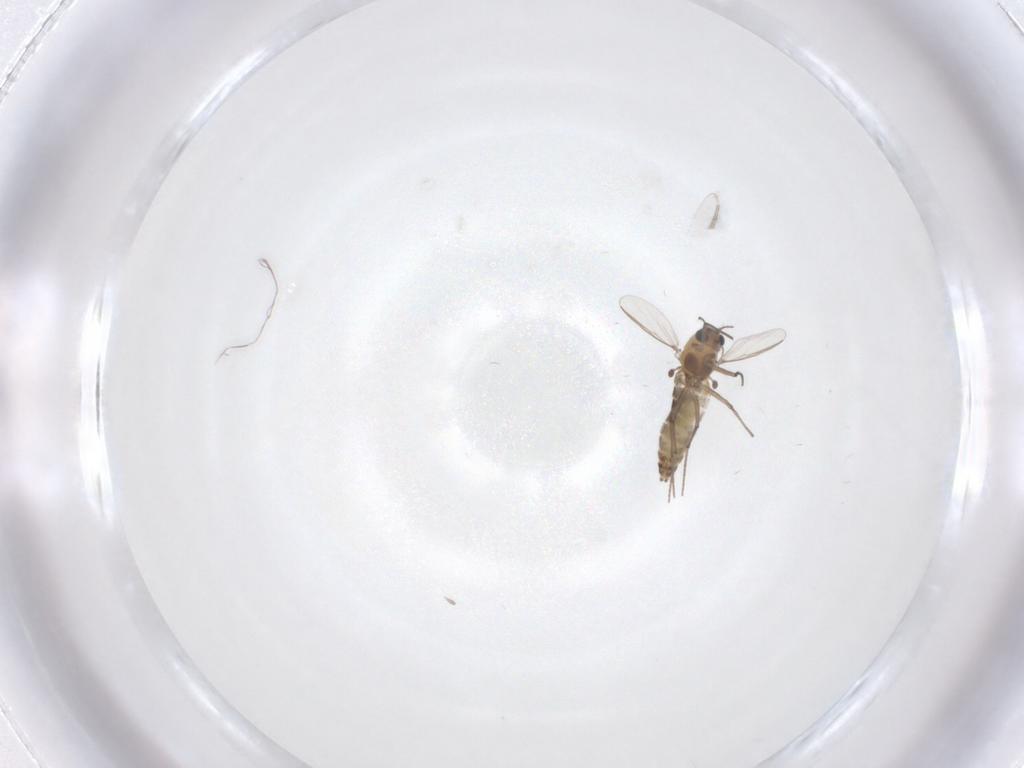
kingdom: Animalia
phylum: Arthropoda
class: Insecta
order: Diptera
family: Chironomidae
